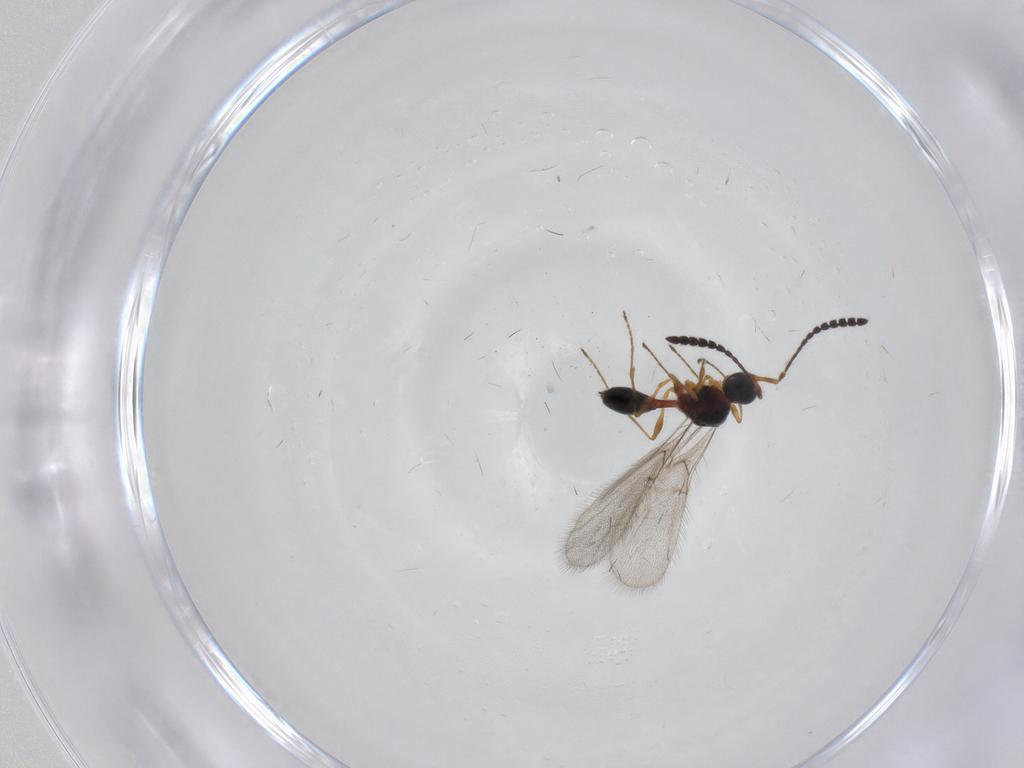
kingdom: Animalia
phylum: Arthropoda
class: Insecta
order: Hymenoptera
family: Diapriidae
